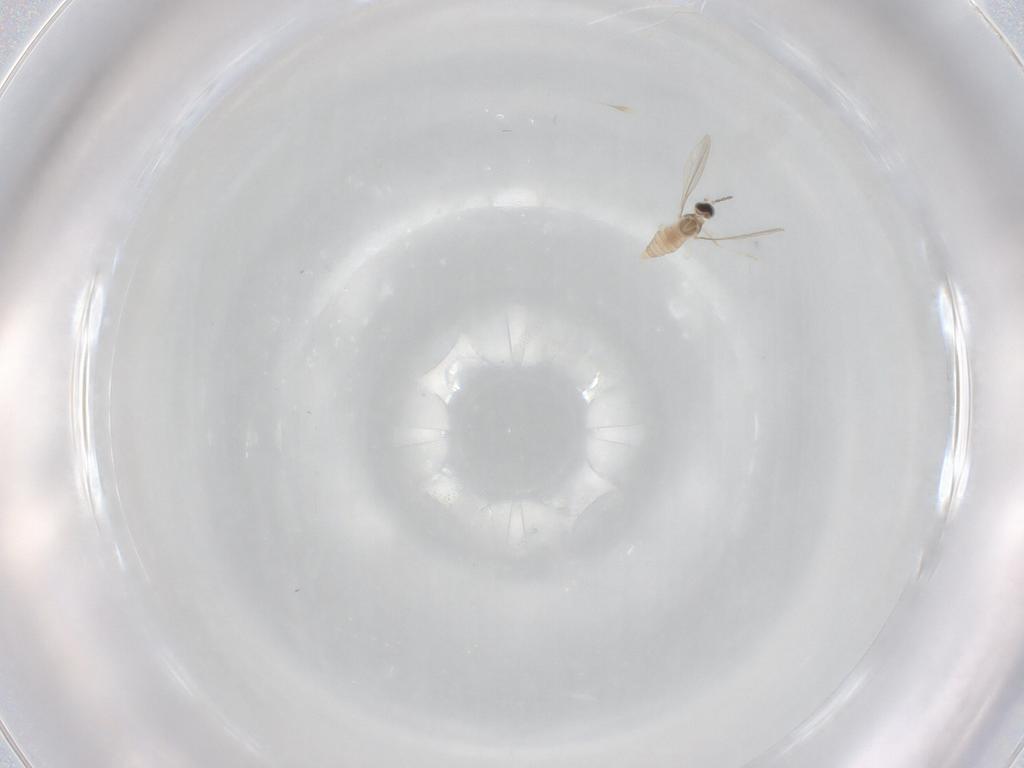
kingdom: Animalia
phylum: Arthropoda
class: Insecta
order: Diptera
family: Cecidomyiidae
